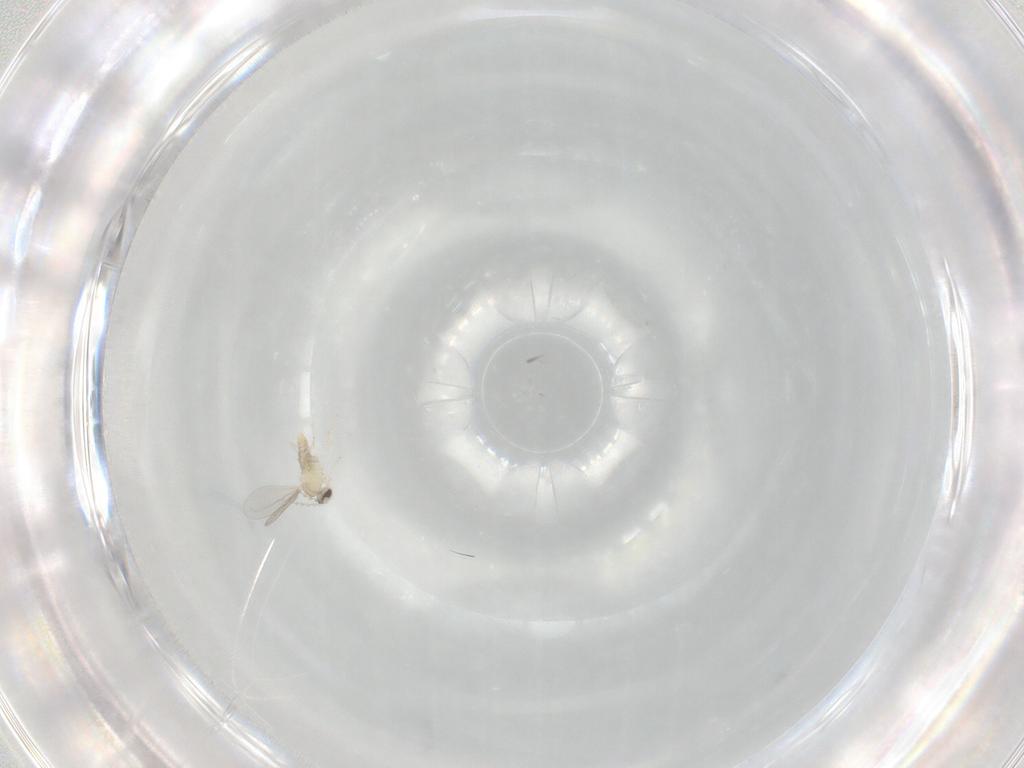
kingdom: Animalia
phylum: Arthropoda
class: Insecta
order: Diptera
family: Cecidomyiidae
